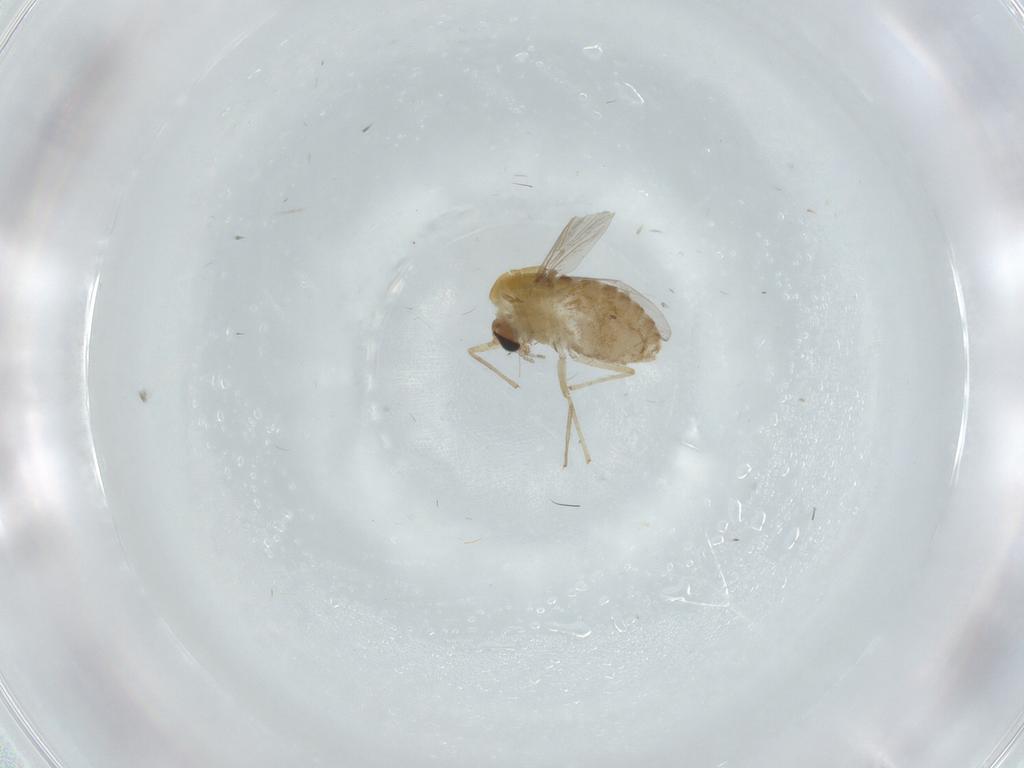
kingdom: Animalia
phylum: Arthropoda
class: Insecta
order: Diptera
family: Chironomidae
